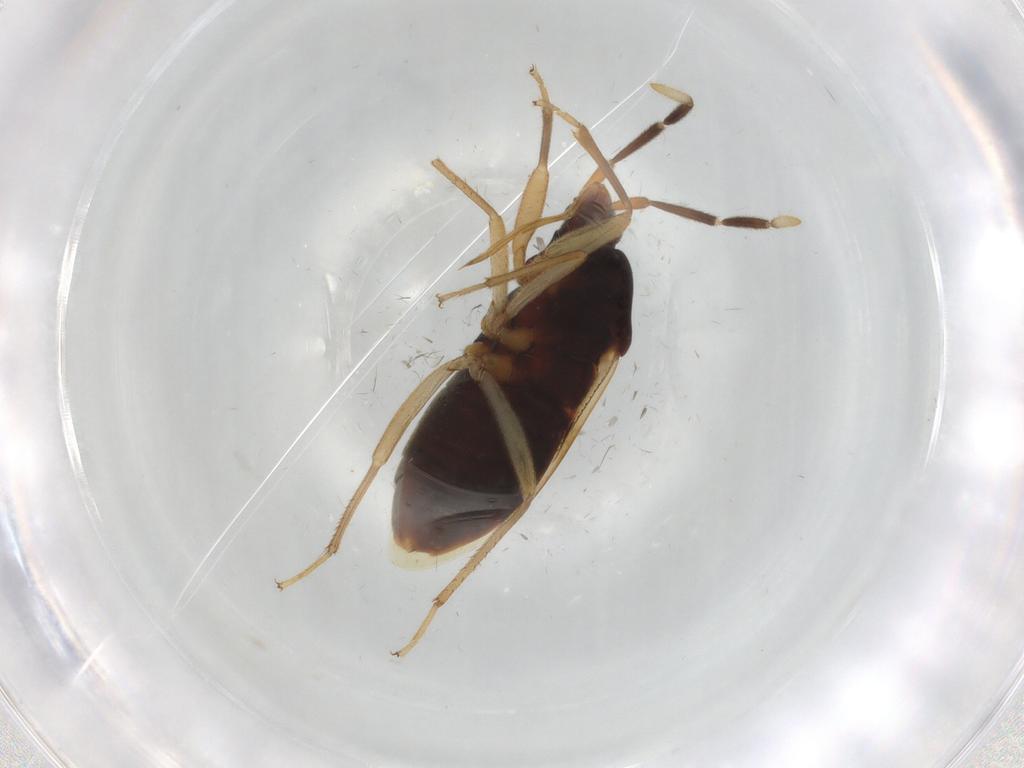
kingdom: Animalia
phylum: Arthropoda
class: Insecta
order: Hemiptera
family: Rhyparochromidae
